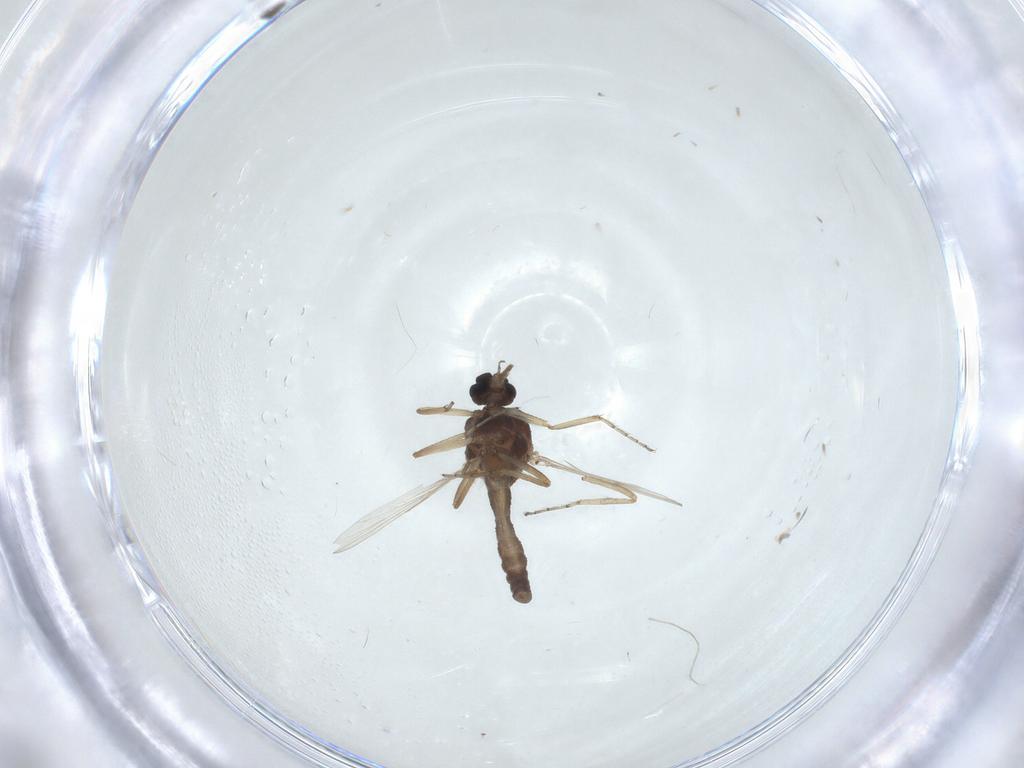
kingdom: Animalia
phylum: Arthropoda
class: Insecta
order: Diptera
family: Ceratopogonidae
